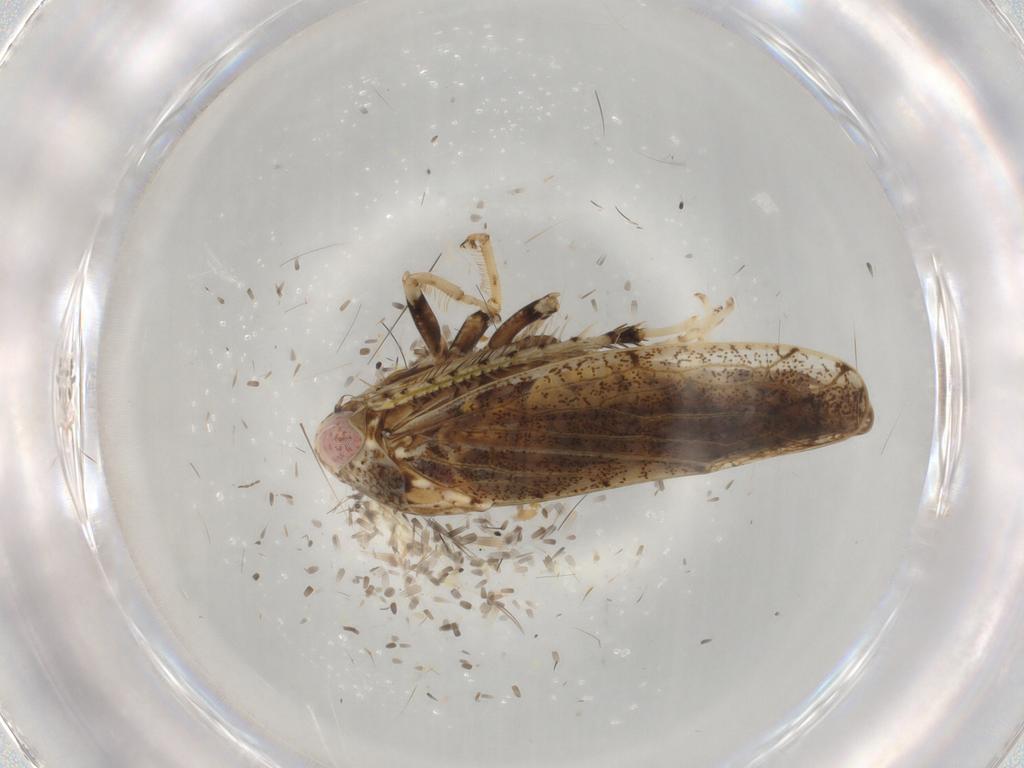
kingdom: Animalia
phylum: Arthropoda
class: Insecta
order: Hemiptera
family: Cicadellidae
